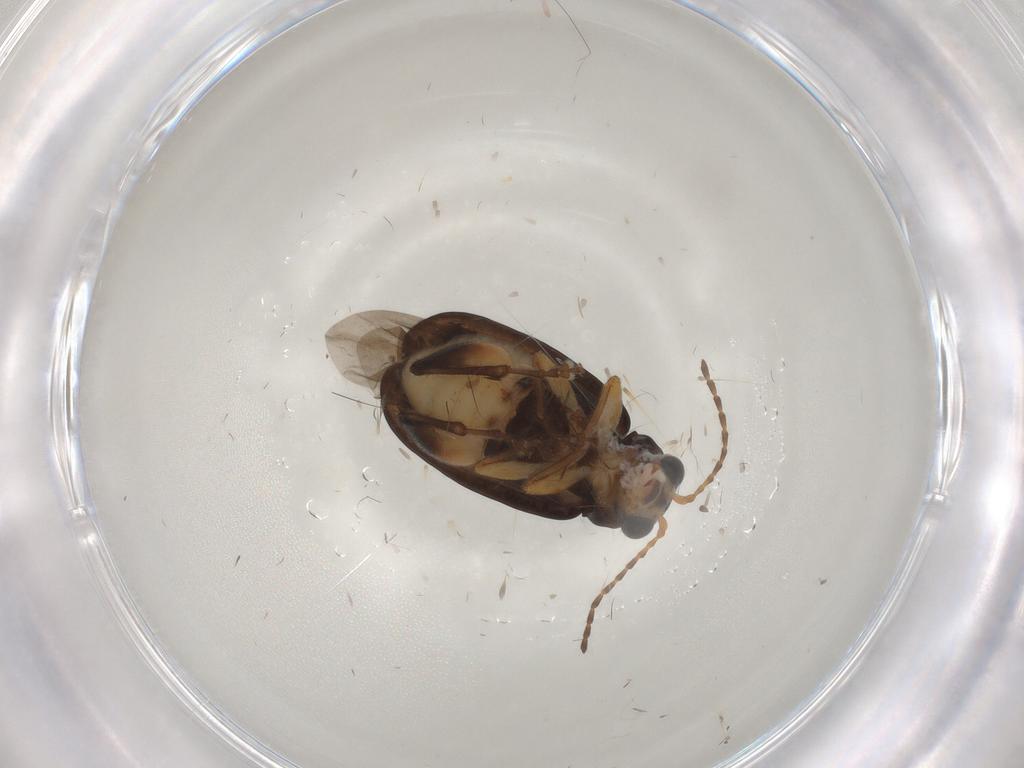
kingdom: Animalia
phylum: Arthropoda
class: Insecta
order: Coleoptera
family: Chrysomelidae
